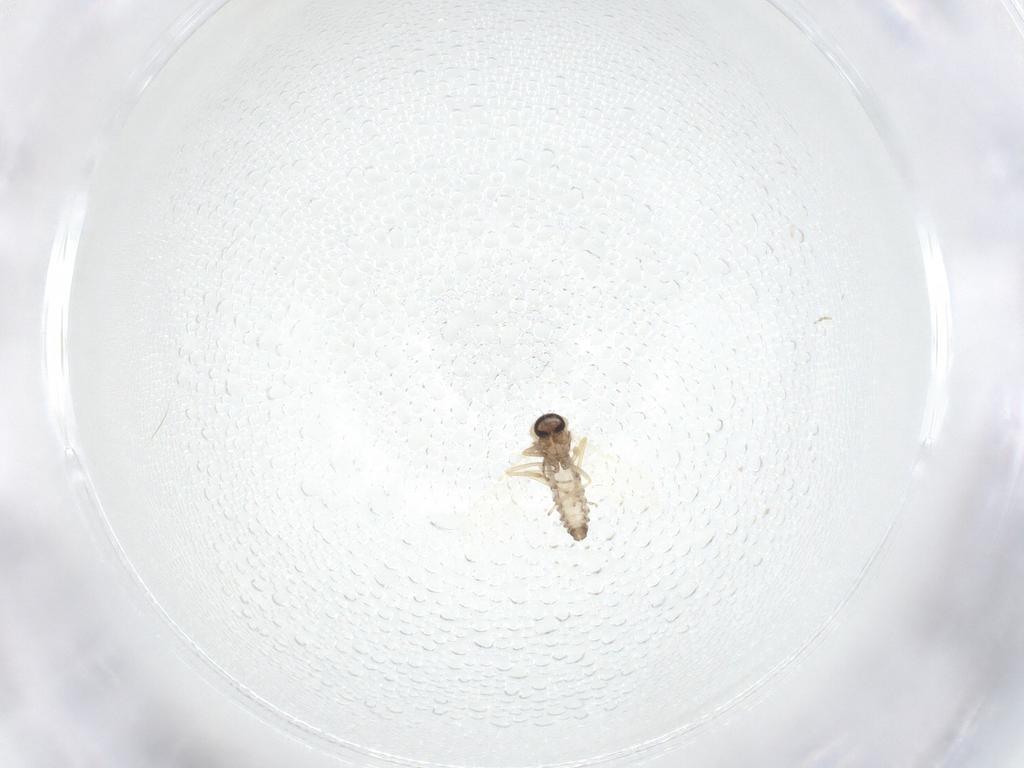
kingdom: Animalia
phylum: Arthropoda
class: Insecta
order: Diptera
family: Ceratopogonidae
